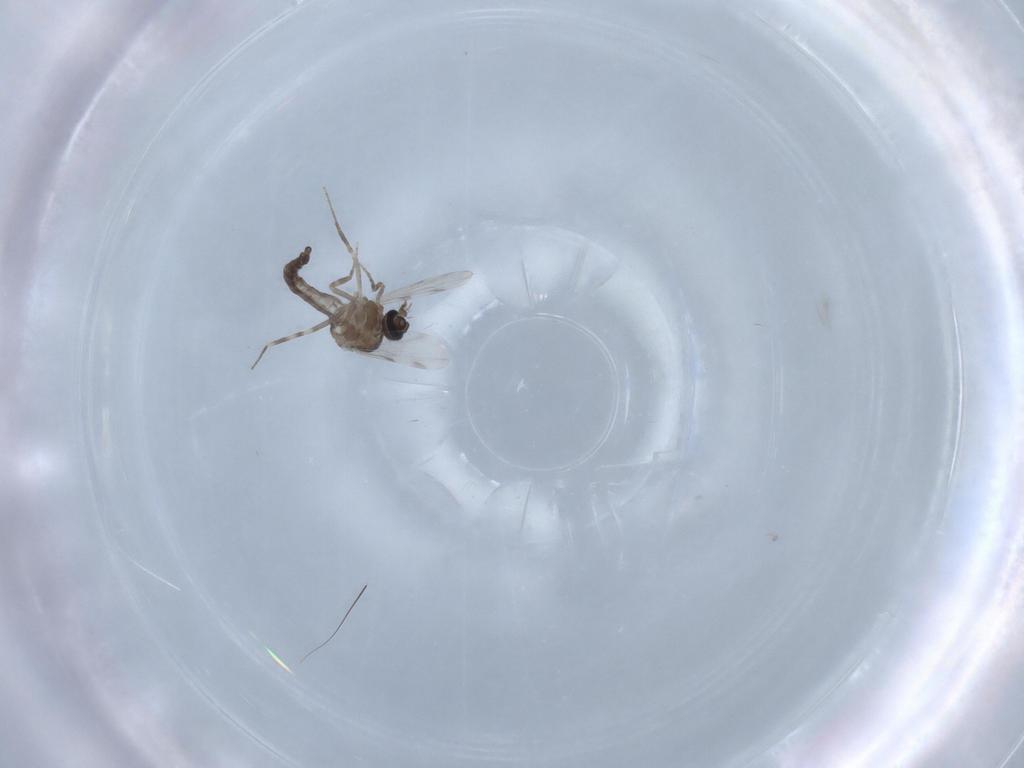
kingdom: Animalia
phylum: Arthropoda
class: Insecta
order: Diptera
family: Ceratopogonidae
